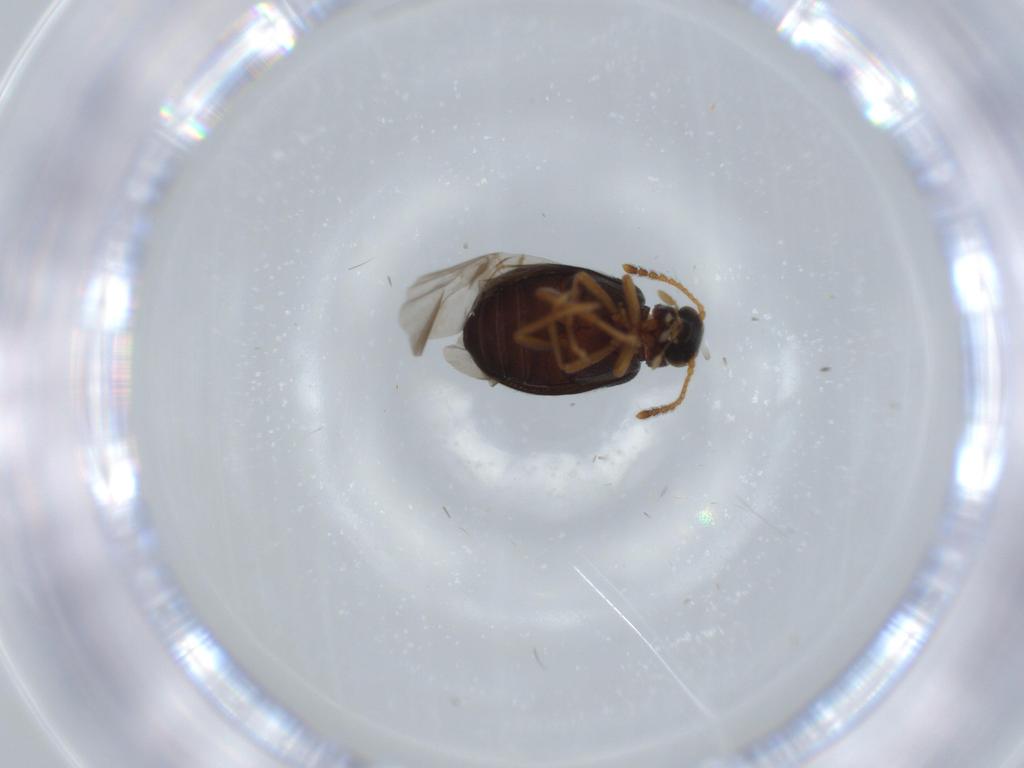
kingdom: Animalia
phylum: Arthropoda
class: Insecta
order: Coleoptera
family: Aderidae
